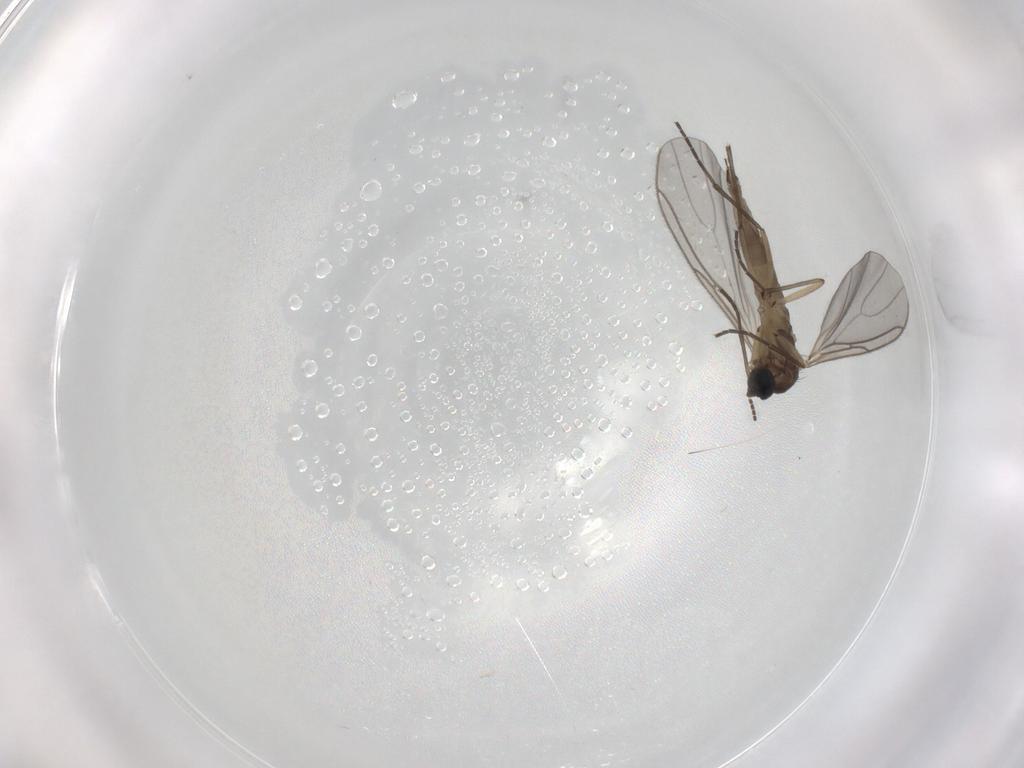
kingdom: Animalia
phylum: Arthropoda
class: Insecta
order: Diptera
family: Sciaridae
